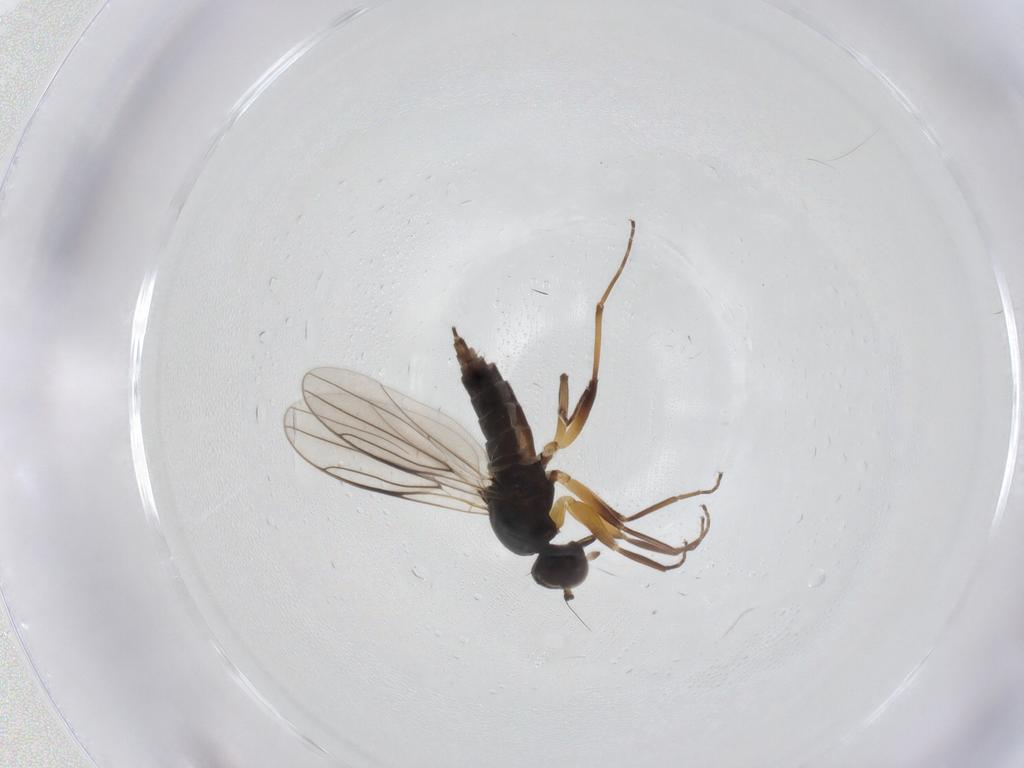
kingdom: Animalia
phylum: Arthropoda
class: Insecta
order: Diptera
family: Hybotidae
